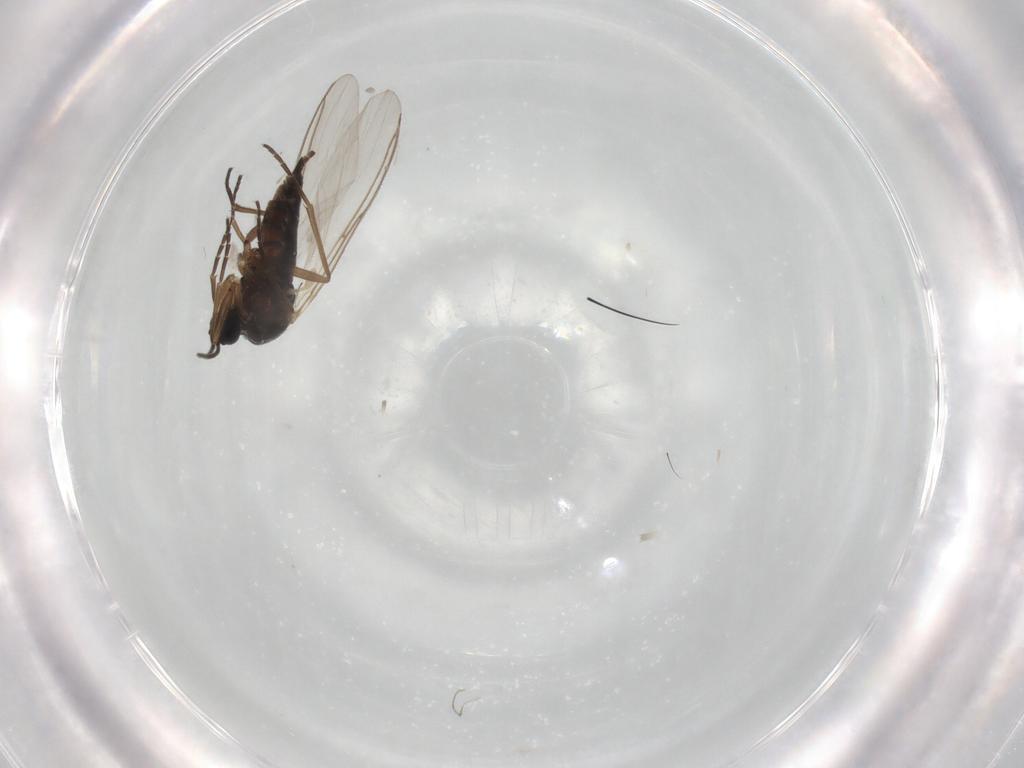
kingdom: Animalia
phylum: Arthropoda
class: Insecta
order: Diptera
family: Sciaridae
